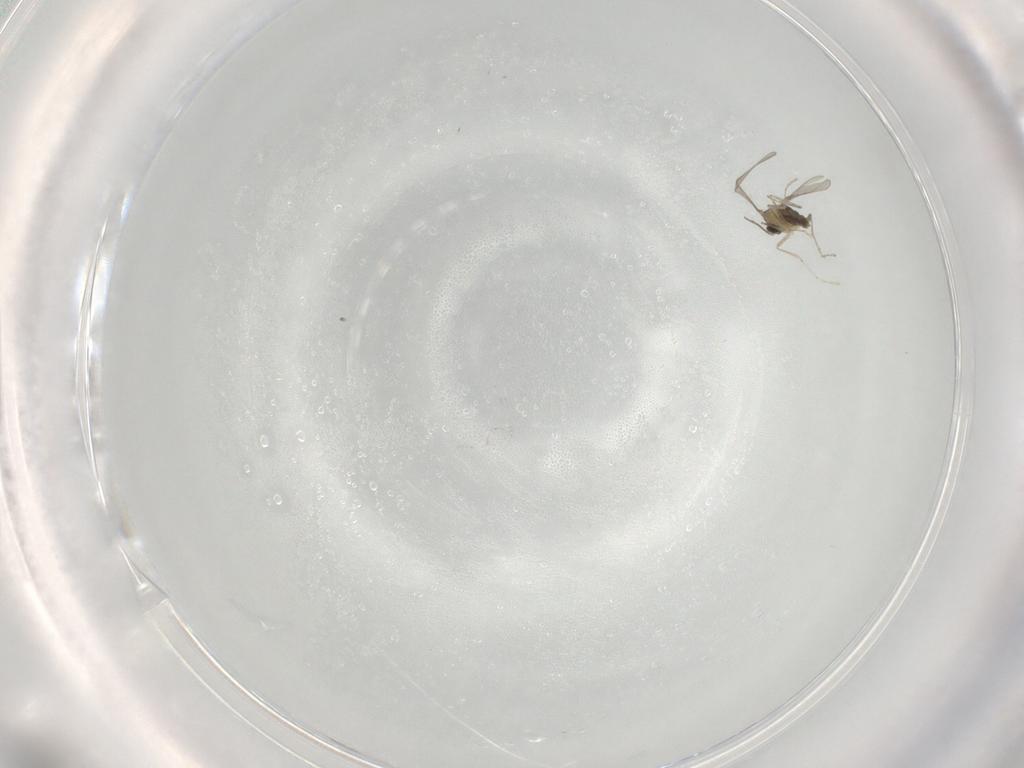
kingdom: Animalia
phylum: Arthropoda
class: Insecta
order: Diptera
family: Cecidomyiidae
